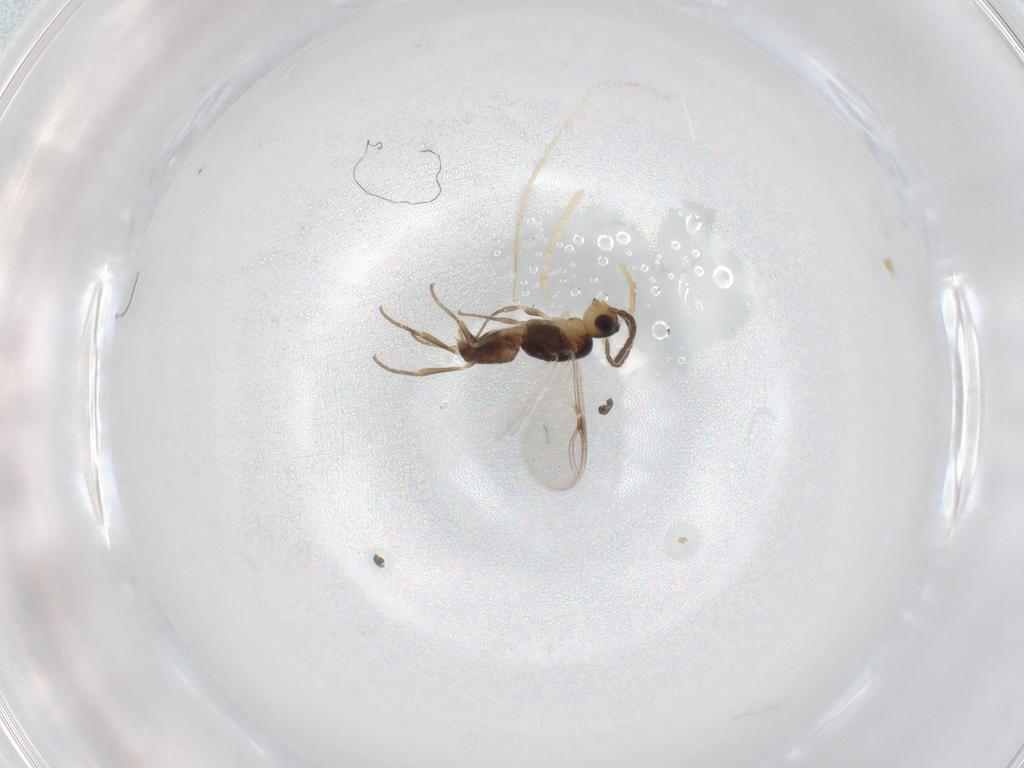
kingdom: Animalia
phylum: Arthropoda
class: Insecta
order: Hymenoptera
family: Dryinidae
